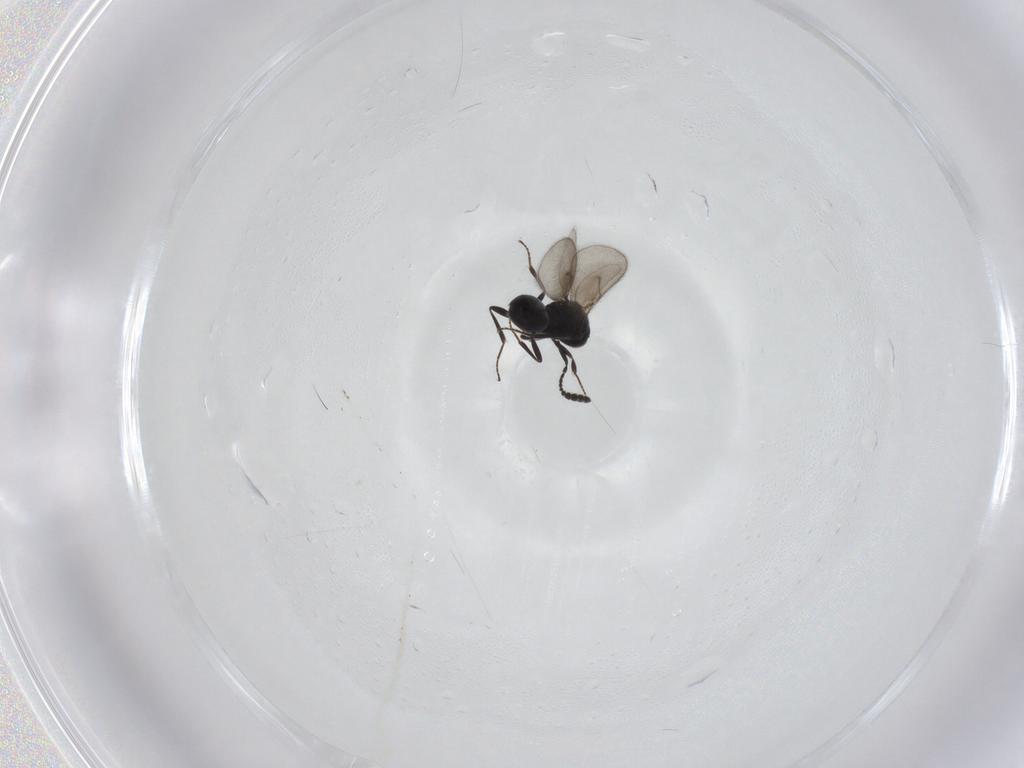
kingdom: Animalia
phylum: Arthropoda
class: Insecta
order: Hymenoptera
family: Scelionidae
